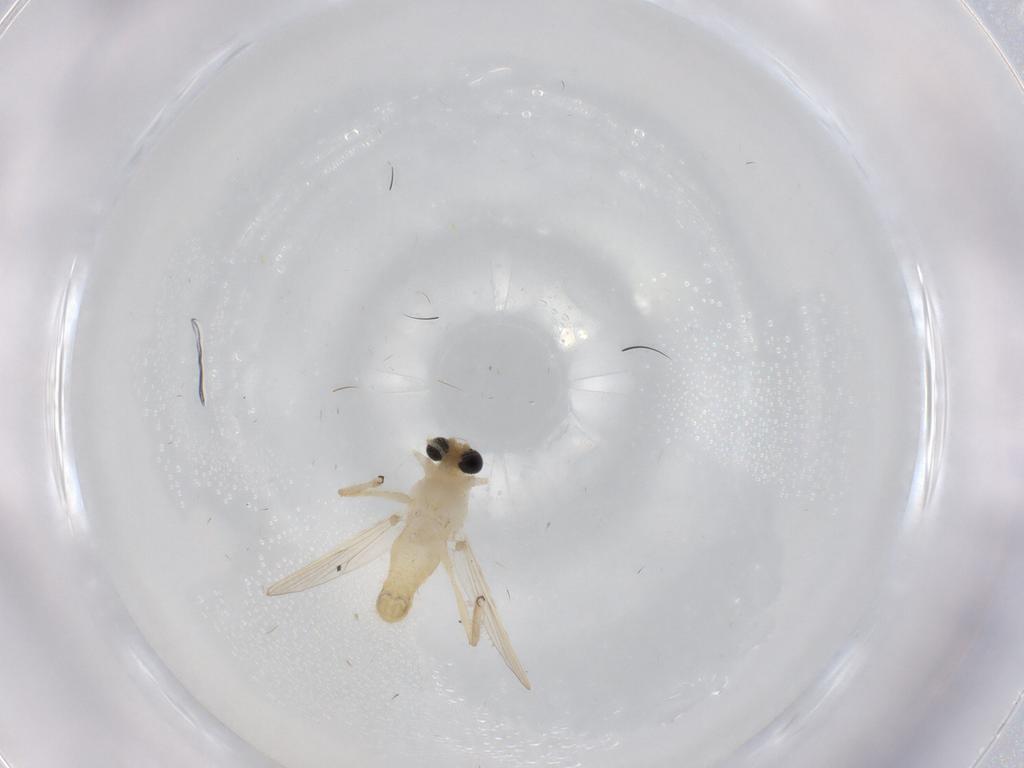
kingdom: Animalia
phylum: Arthropoda
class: Insecta
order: Diptera
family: Chironomidae
